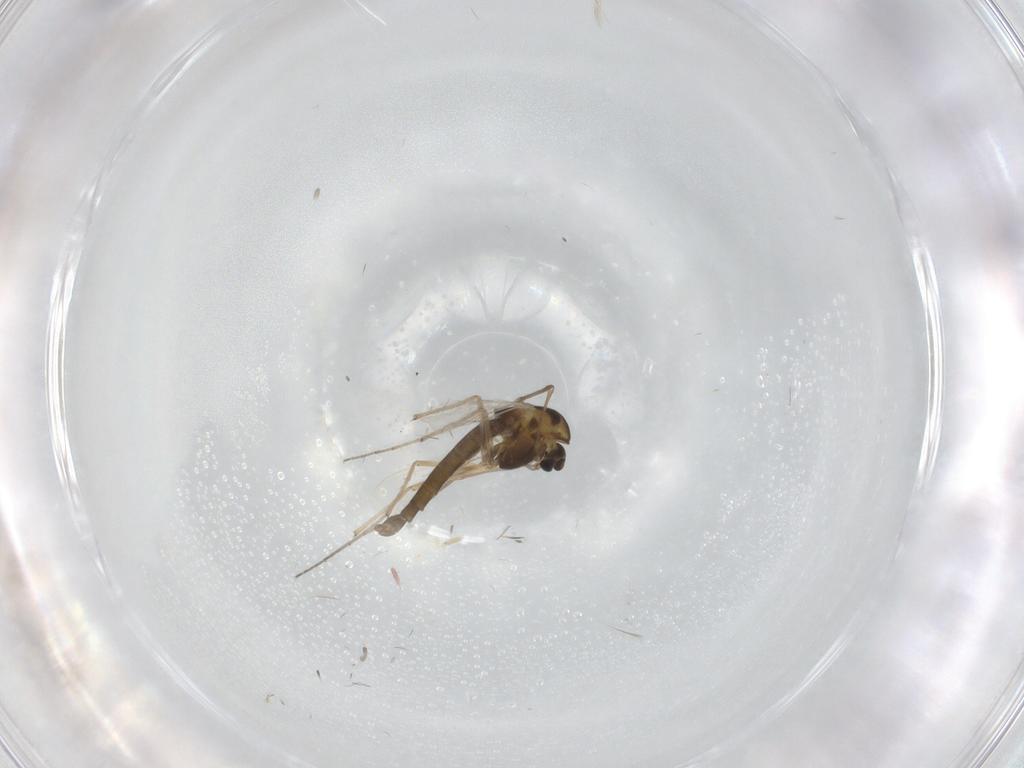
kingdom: Animalia
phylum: Arthropoda
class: Insecta
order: Diptera
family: Chironomidae
